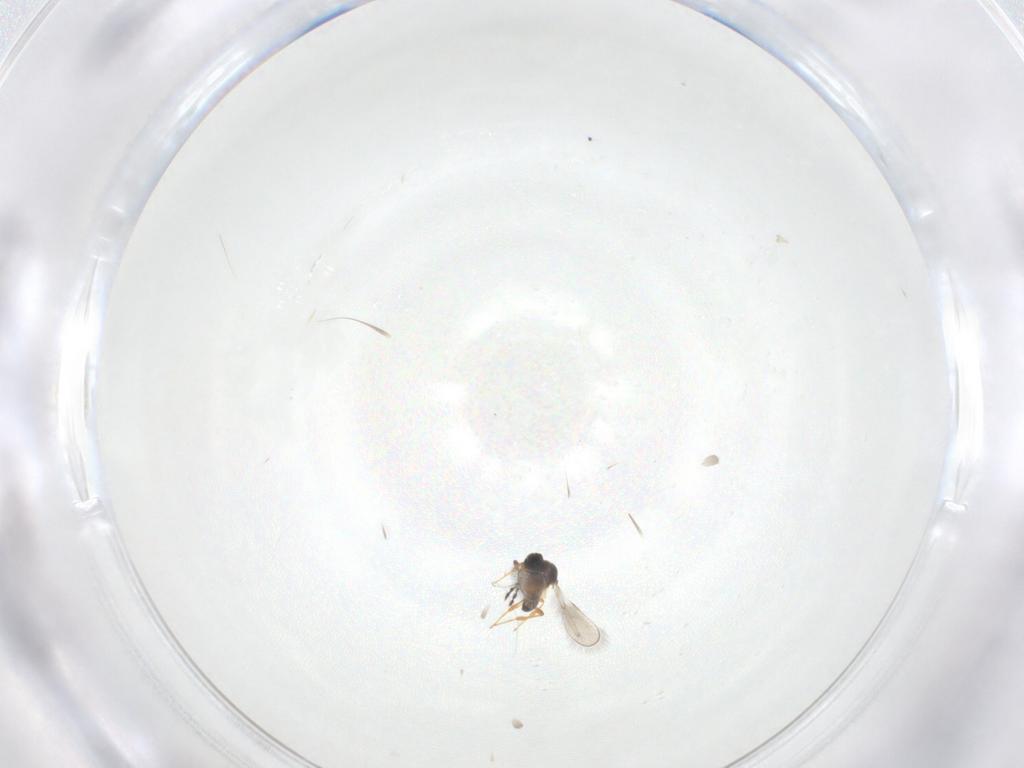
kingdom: Animalia
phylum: Arthropoda
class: Insecta
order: Hymenoptera
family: Platygastridae
